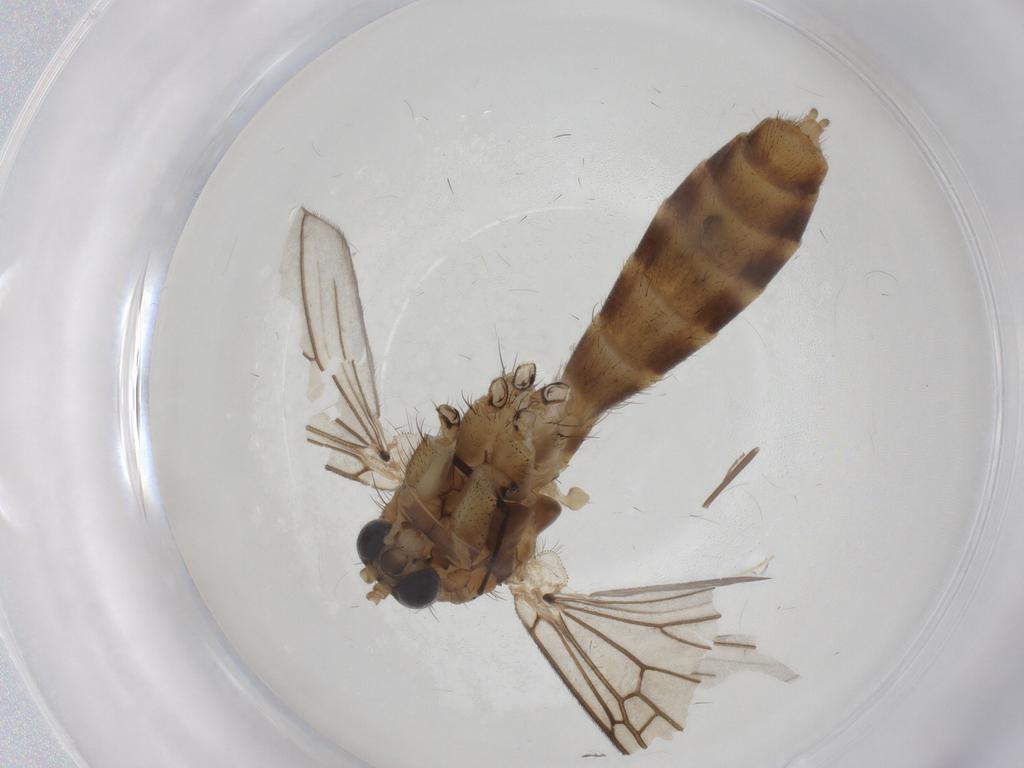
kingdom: Animalia
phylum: Arthropoda
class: Insecta
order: Diptera
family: Mycetophilidae
